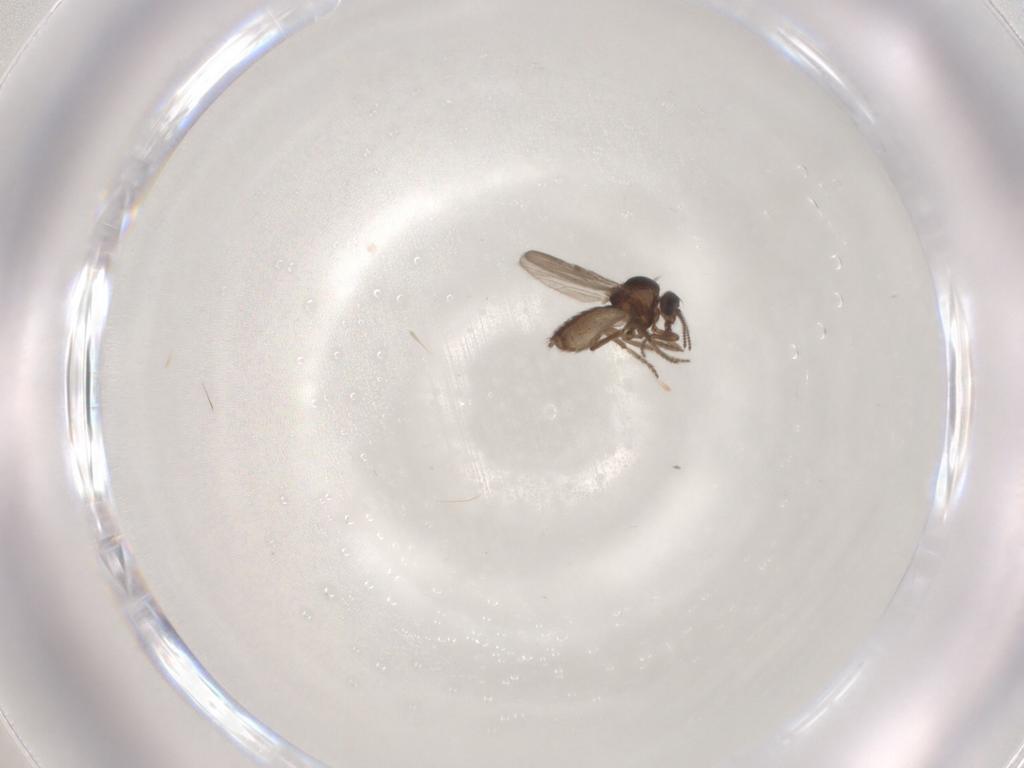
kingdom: Animalia
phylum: Arthropoda
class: Insecta
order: Diptera
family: Ceratopogonidae
